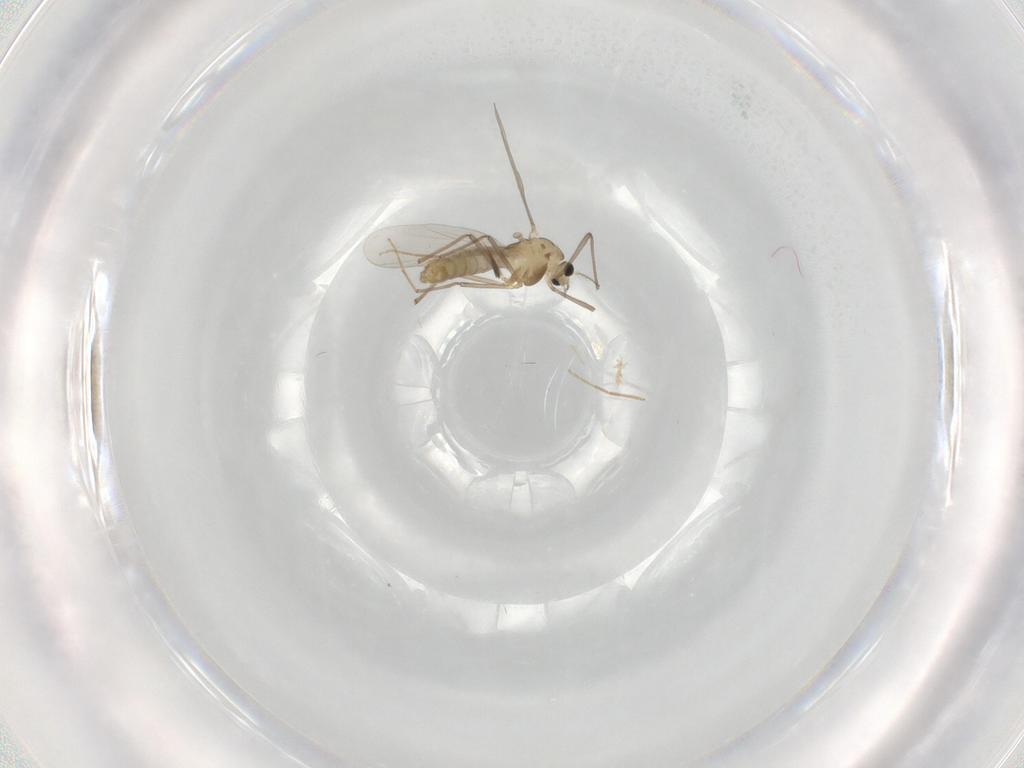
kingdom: Animalia
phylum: Arthropoda
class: Insecta
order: Diptera
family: Chironomidae
